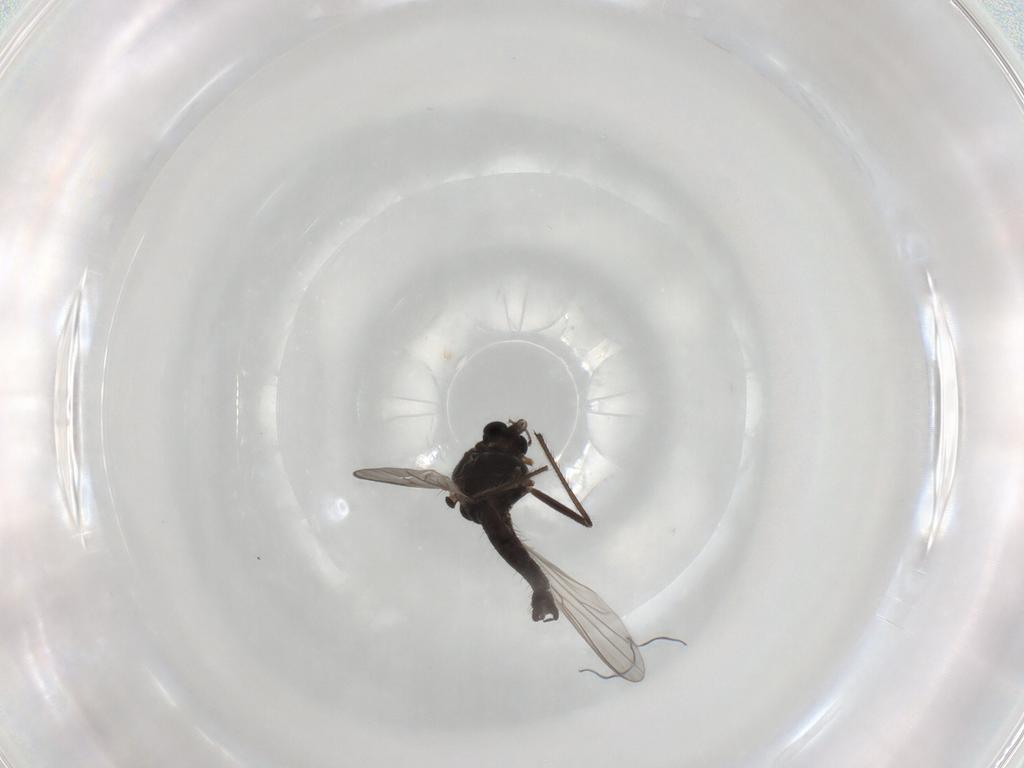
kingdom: Animalia
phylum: Arthropoda
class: Insecta
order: Diptera
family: Chironomidae
